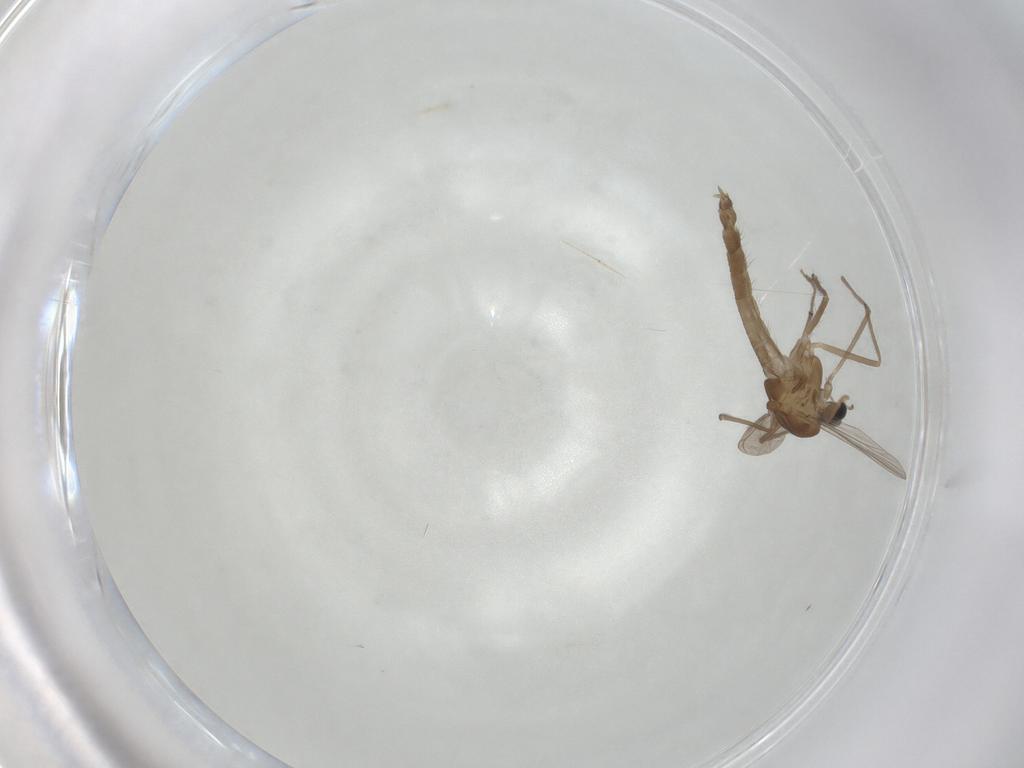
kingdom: Animalia
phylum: Arthropoda
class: Insecta
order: Diptera
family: Chironomidae
